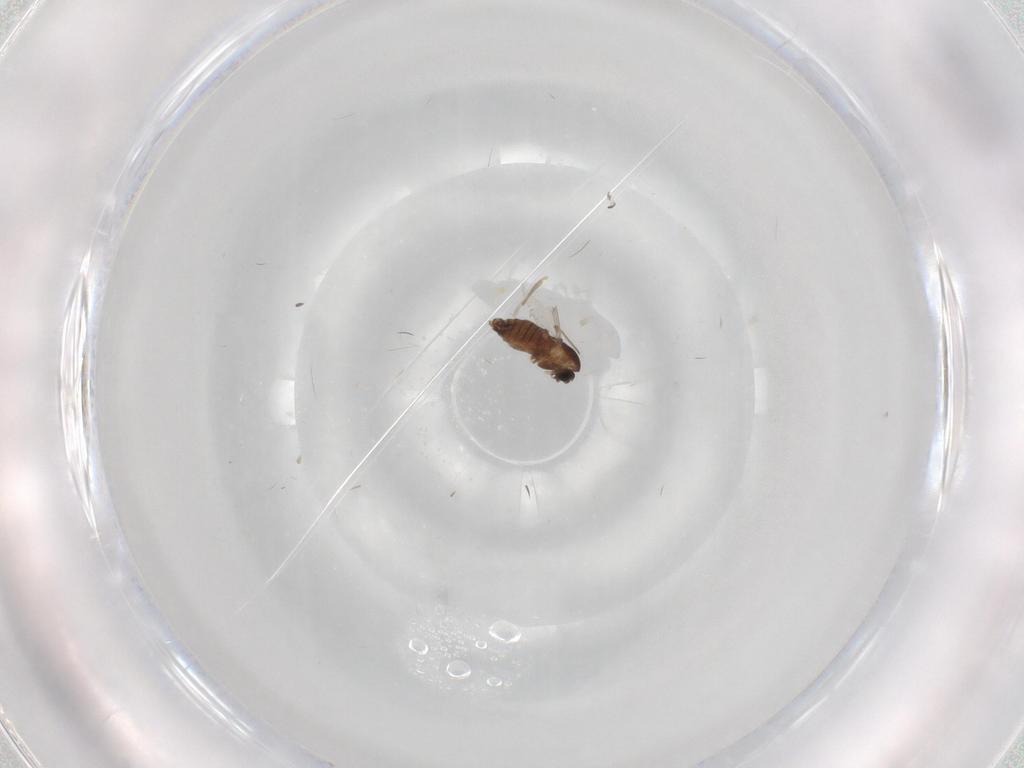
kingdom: Animalia
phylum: Arthropoda
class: Insecta
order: Diptera
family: Chironomidae
